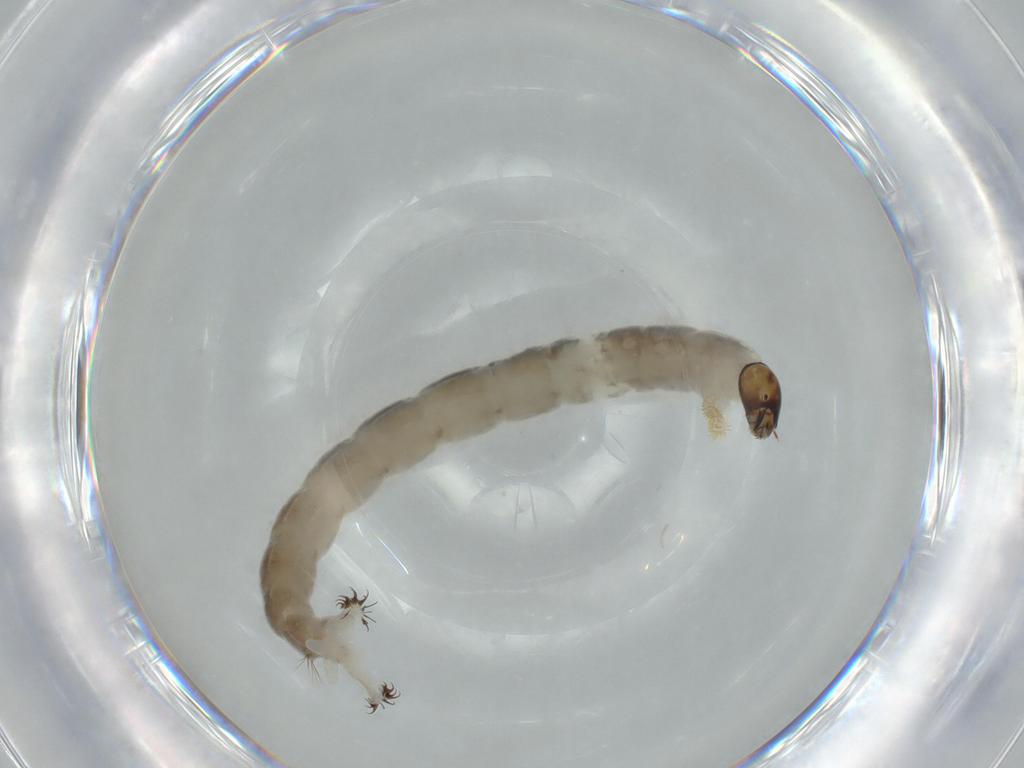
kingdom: Animalia
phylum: Arthropoda
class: Insecta
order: Diptera
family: Chironomidae
